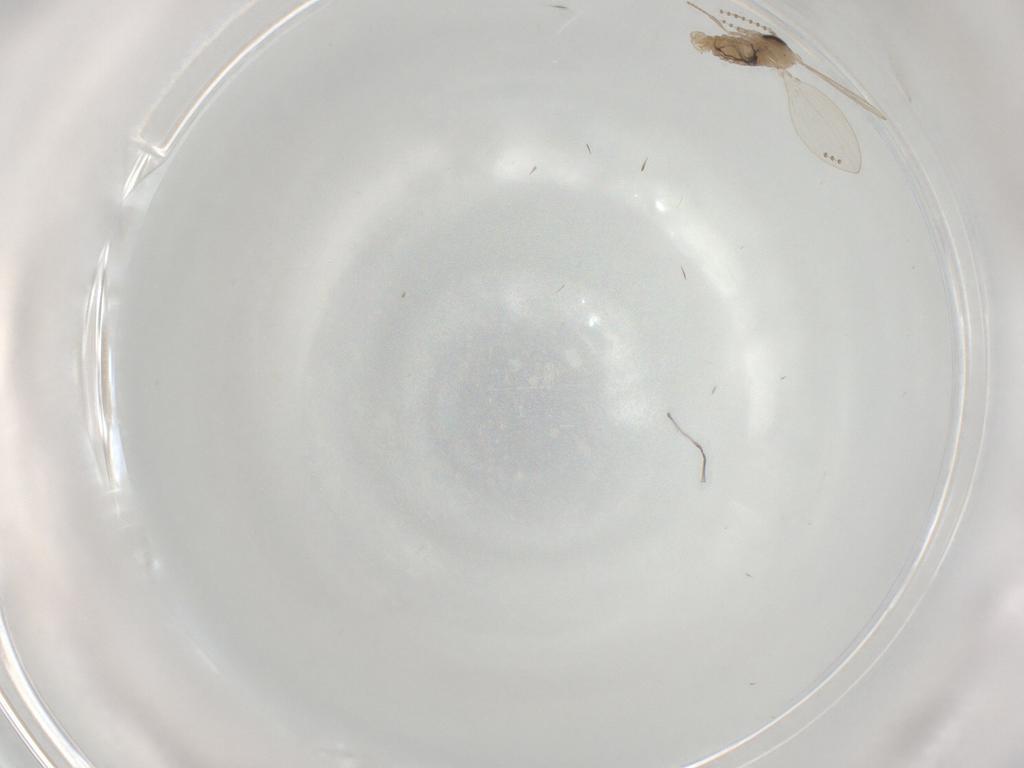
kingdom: Animalia
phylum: Arthropoda
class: Insecta
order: Diptera
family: Psychodidae
